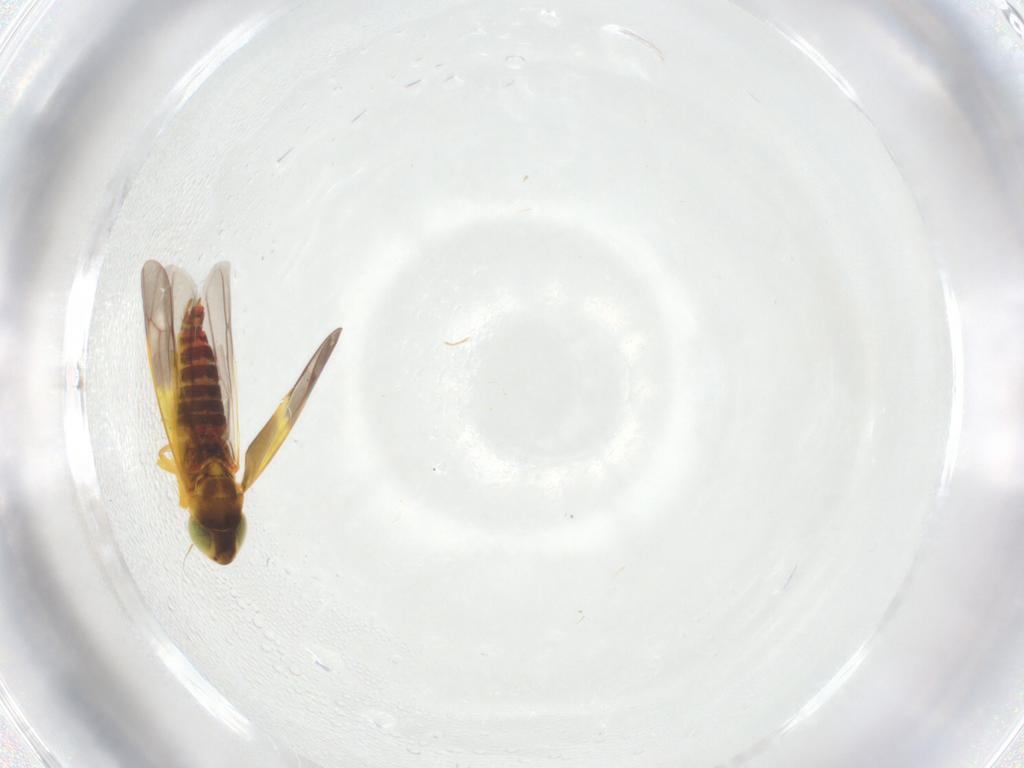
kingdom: Animalia
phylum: Arthropoda
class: Insecta
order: Hemiptera
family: Cicadellidae
